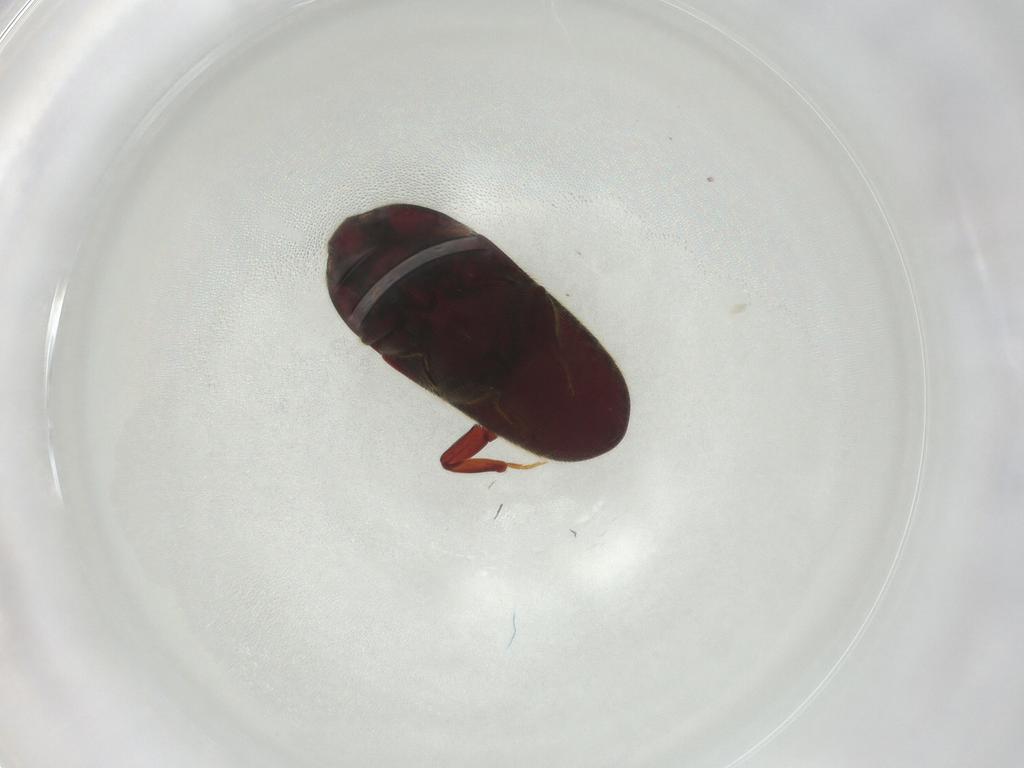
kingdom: Animalia
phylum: Arthropoda
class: Insecta
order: Coleoptera
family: Throscidae
